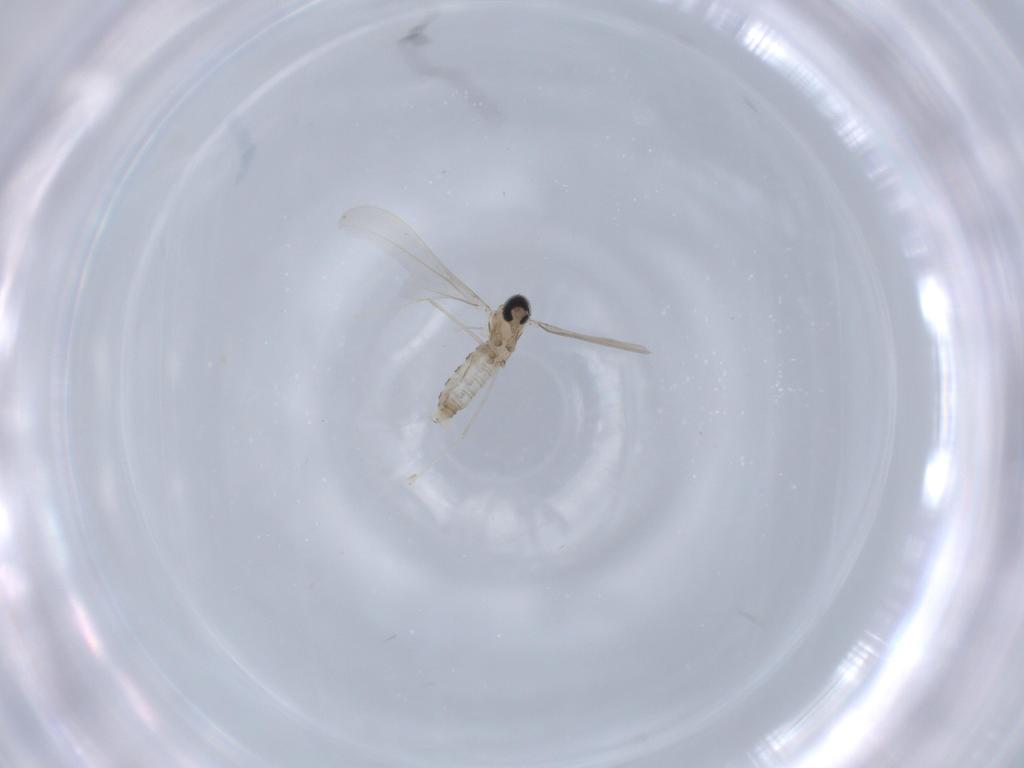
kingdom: Animalia
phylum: Arthropoda
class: Insecta
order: Diptera
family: Cecidomyiidae
